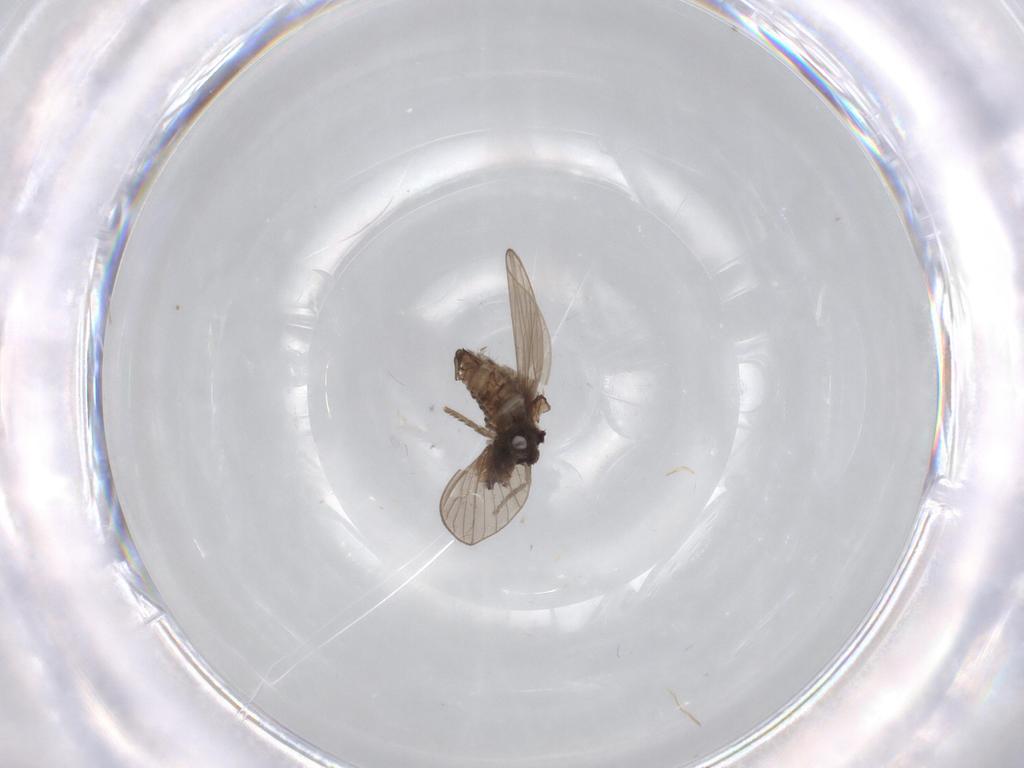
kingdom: Animalia
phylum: Arthropoda
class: Insecta
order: Diptera
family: Psychodidae
